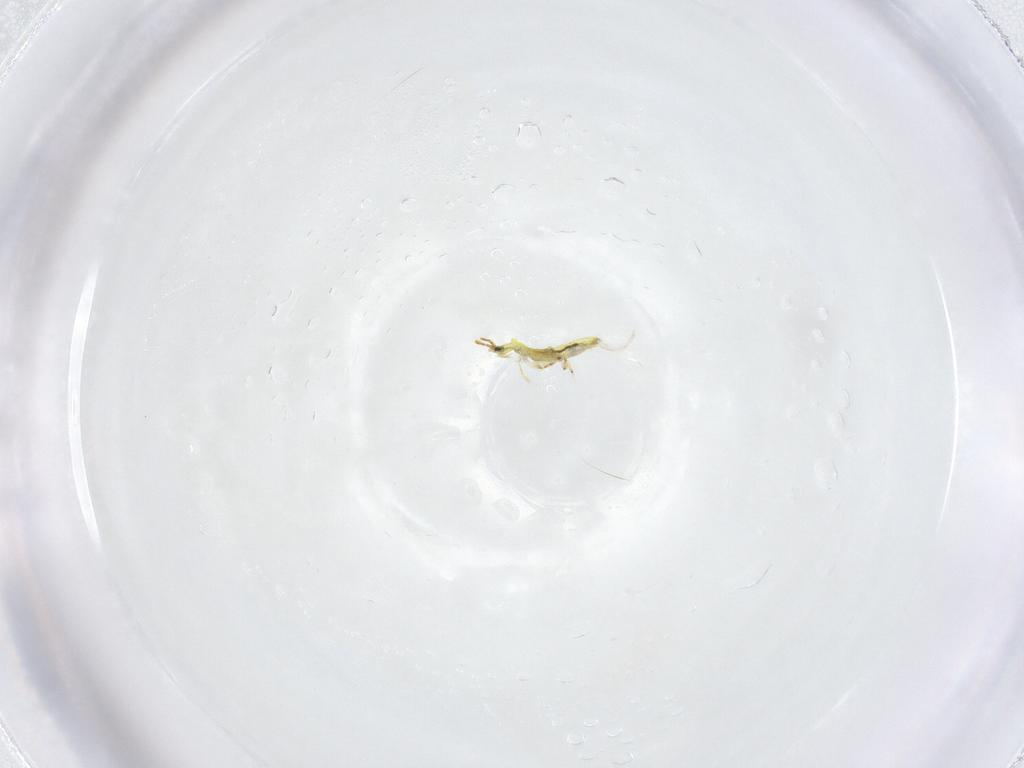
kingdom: Animalia
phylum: Arthropoda
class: Collembola
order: Entomobryomorpha
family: Entomobryidae
